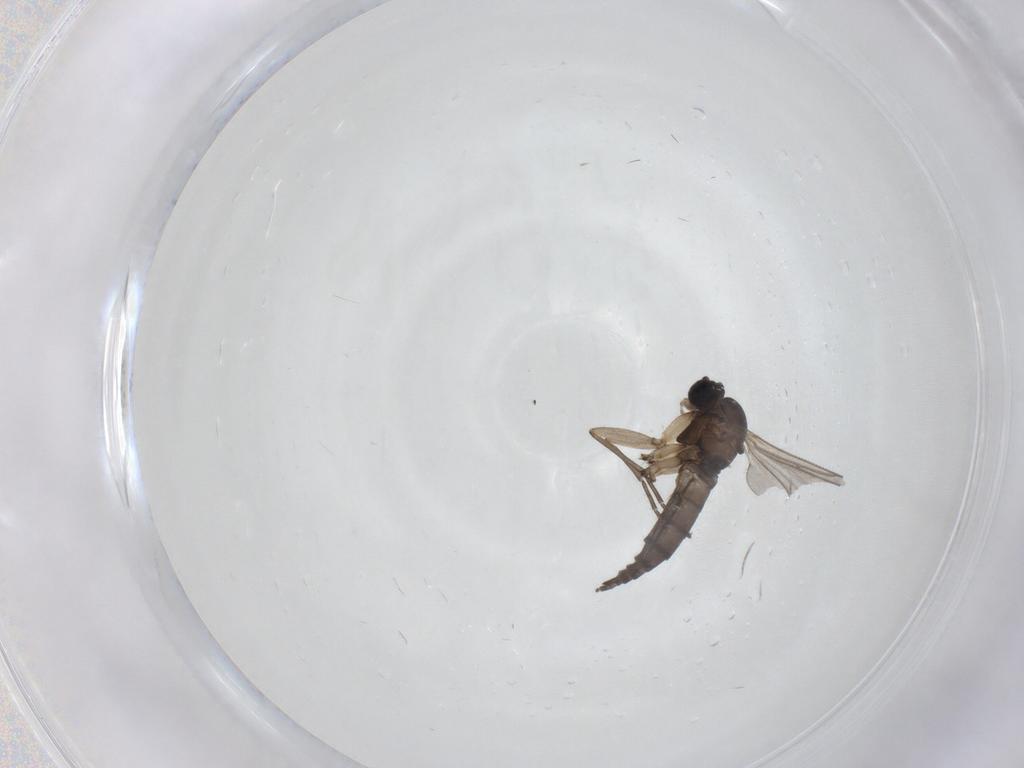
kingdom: Animalia
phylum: Arthropoda
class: Insecta
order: Diptera
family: Sciaridae
